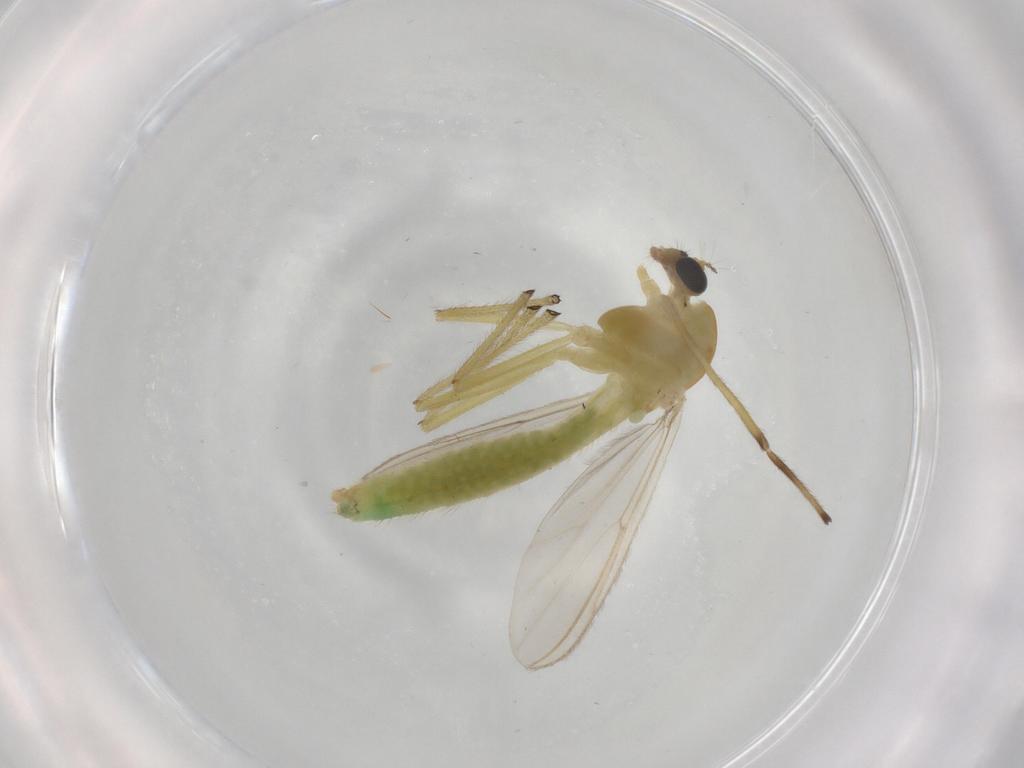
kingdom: Animalia
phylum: Arthropoda
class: Insecta
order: Diptera
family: Chironomidae
